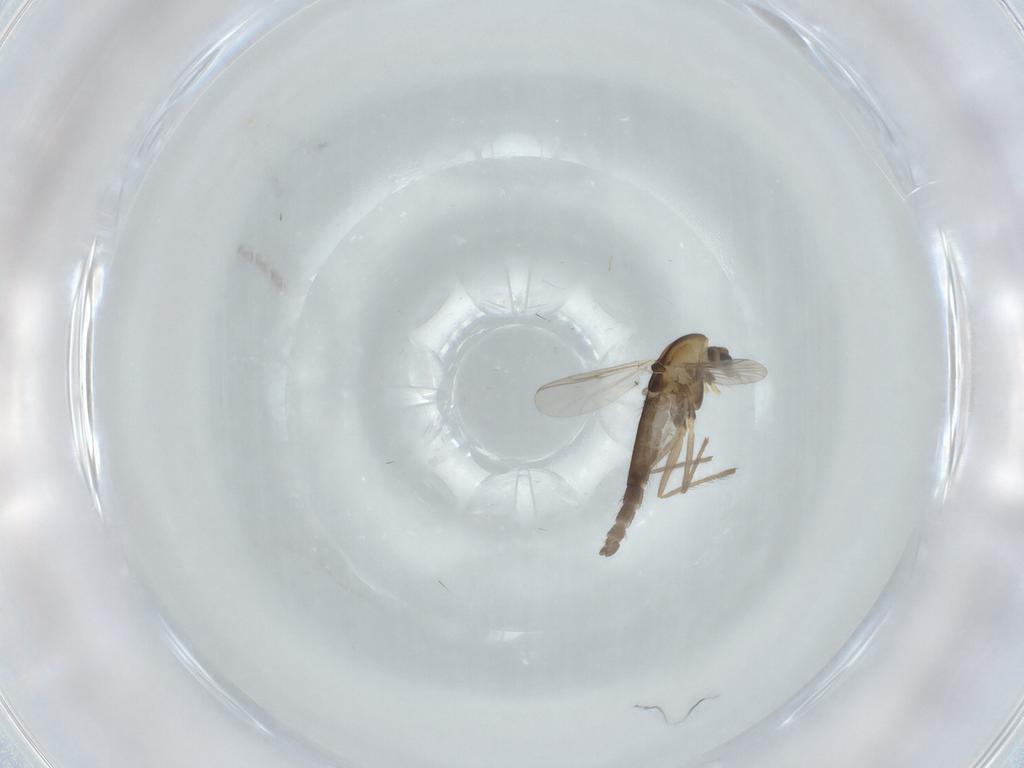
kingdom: Animalia
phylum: Arthropoda
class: Insecta
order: Diptera
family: Chironomidae
